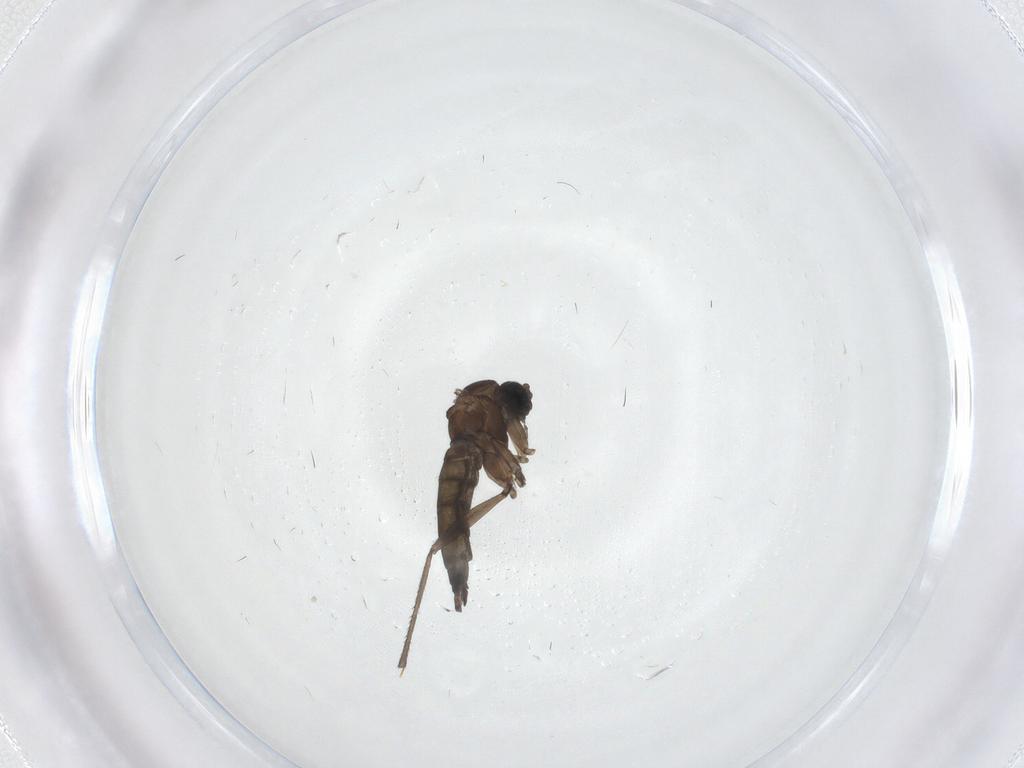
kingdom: Animalia
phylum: Arthropoda
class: Insecta
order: Diptera
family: Sciaridae
